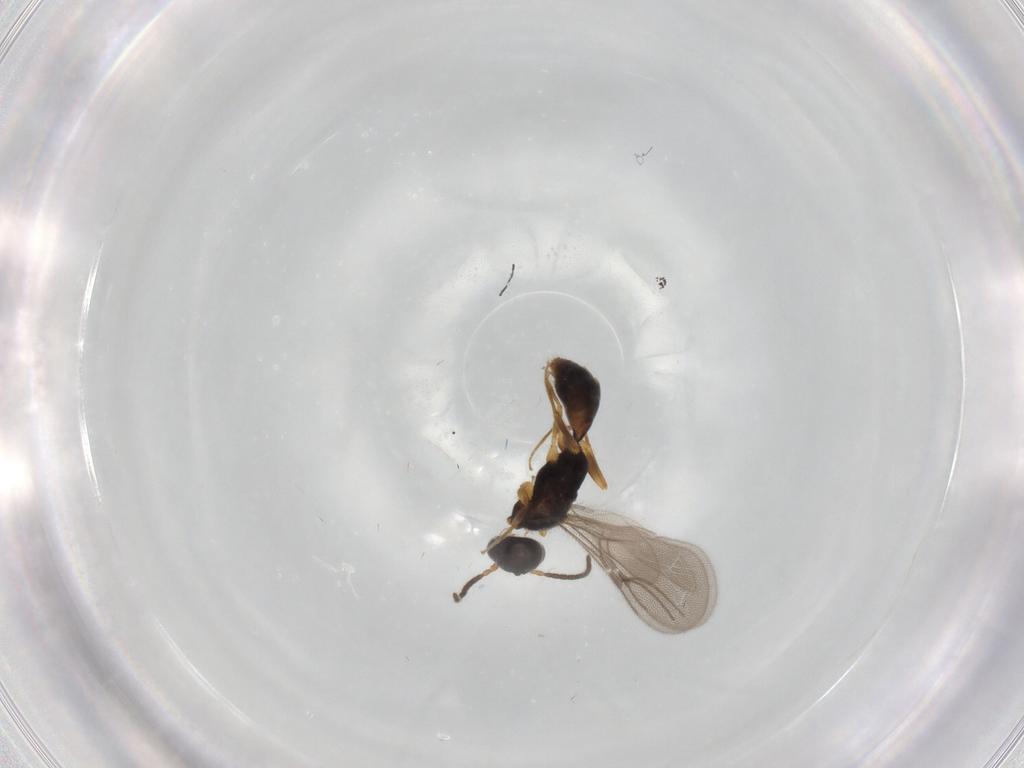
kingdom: Animalia
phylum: Arthropoda
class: Insecta
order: Hymenoptera
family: Bethylidae
